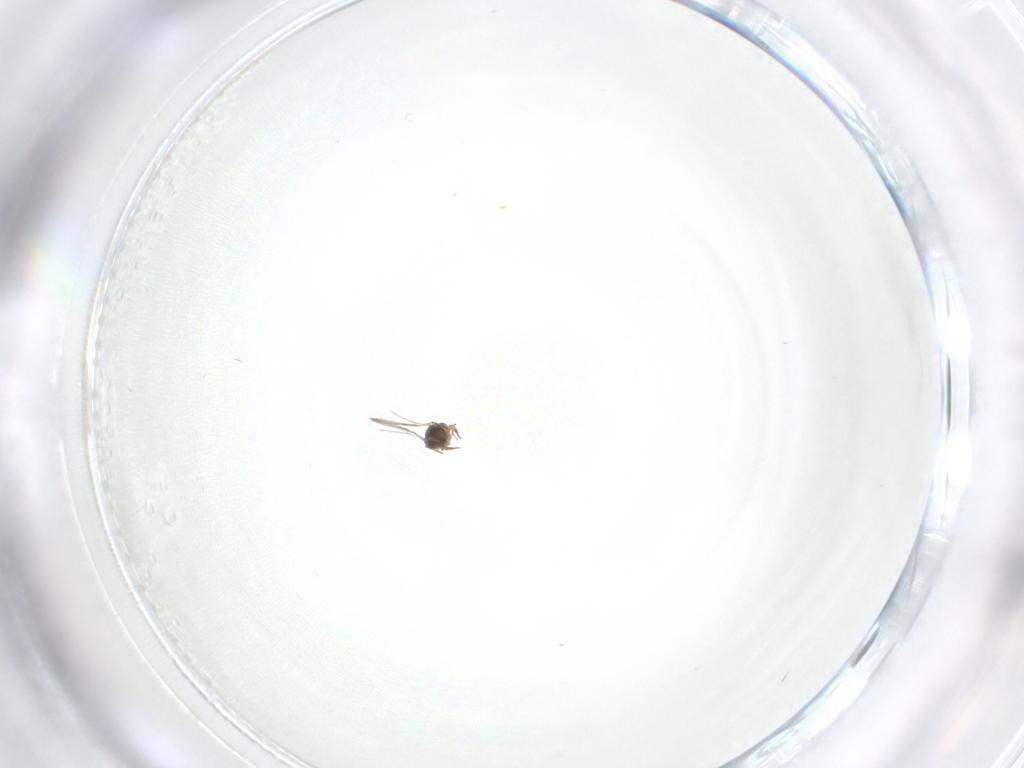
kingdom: Animalia
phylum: Arthropoda
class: Insecta
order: Hymenoptera
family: Trichogrammatidae
